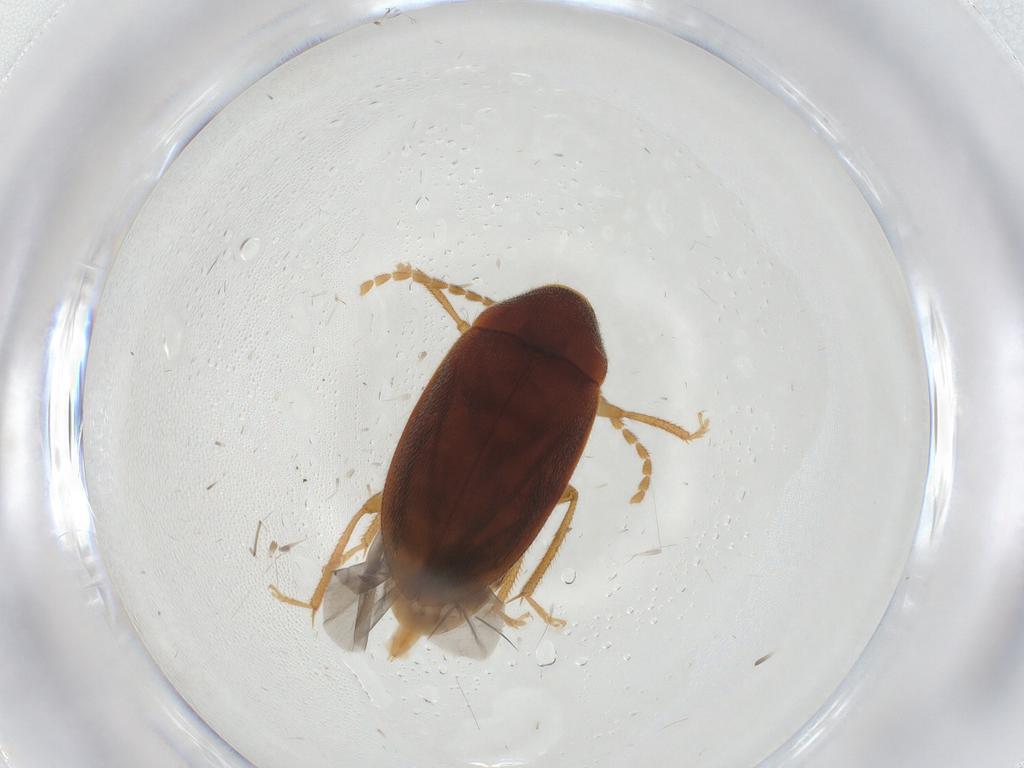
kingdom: Animalia
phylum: Arthropoda
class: Insecta
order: Coleoptera
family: Ptilodactylidae
